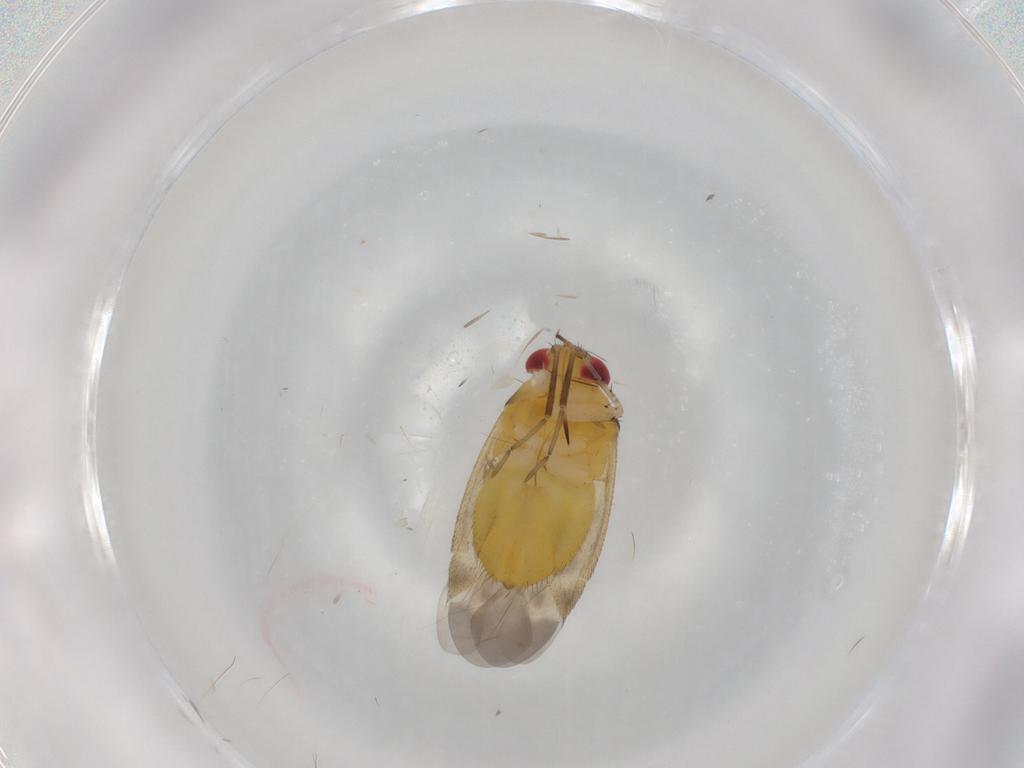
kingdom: Animalia
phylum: Arthropoda
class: Insecta
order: Hemiptera
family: Miridae
